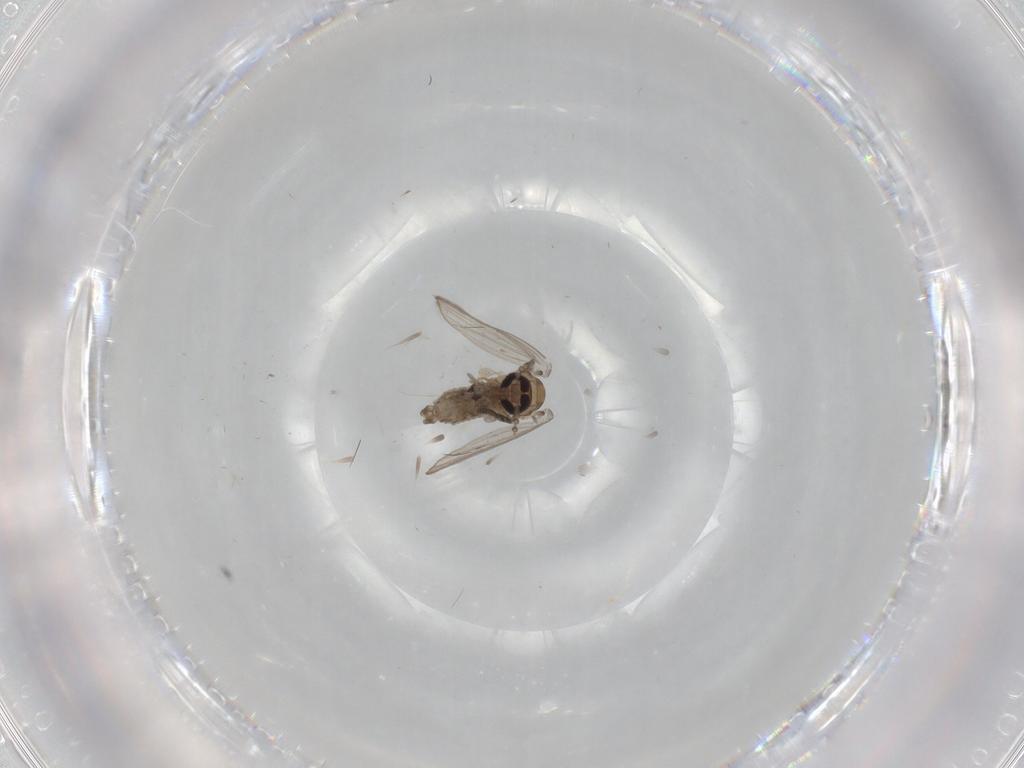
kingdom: Animalia
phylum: Arthropoda
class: Insecta
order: Diptera
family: Psychodidae
